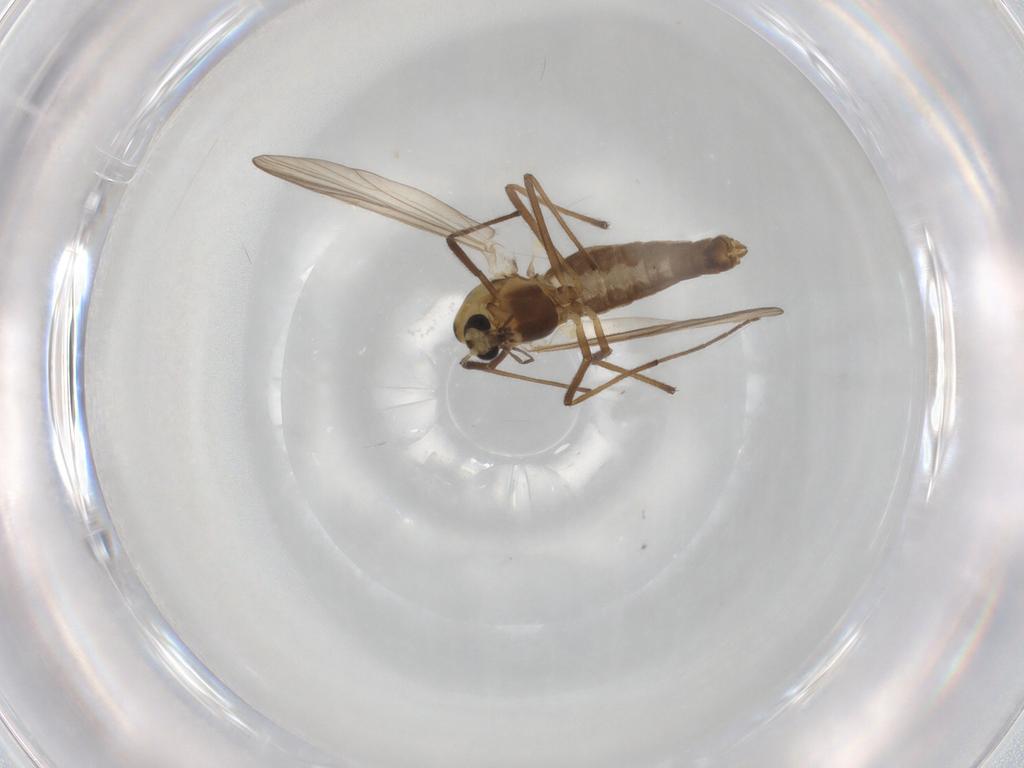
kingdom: Animalia
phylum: Arthropoda
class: Insecta
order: Diptera
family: Chironomidae
